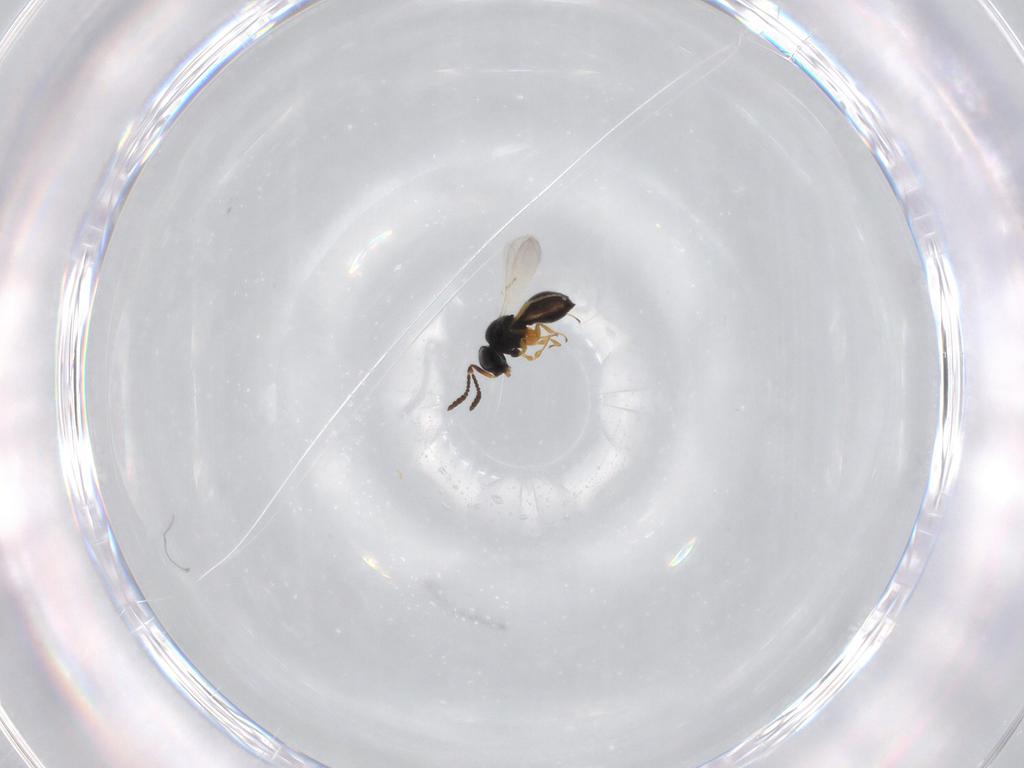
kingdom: Animalia
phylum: Arthropoda
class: Insecta
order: Hymenoptera
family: Scelionidae
